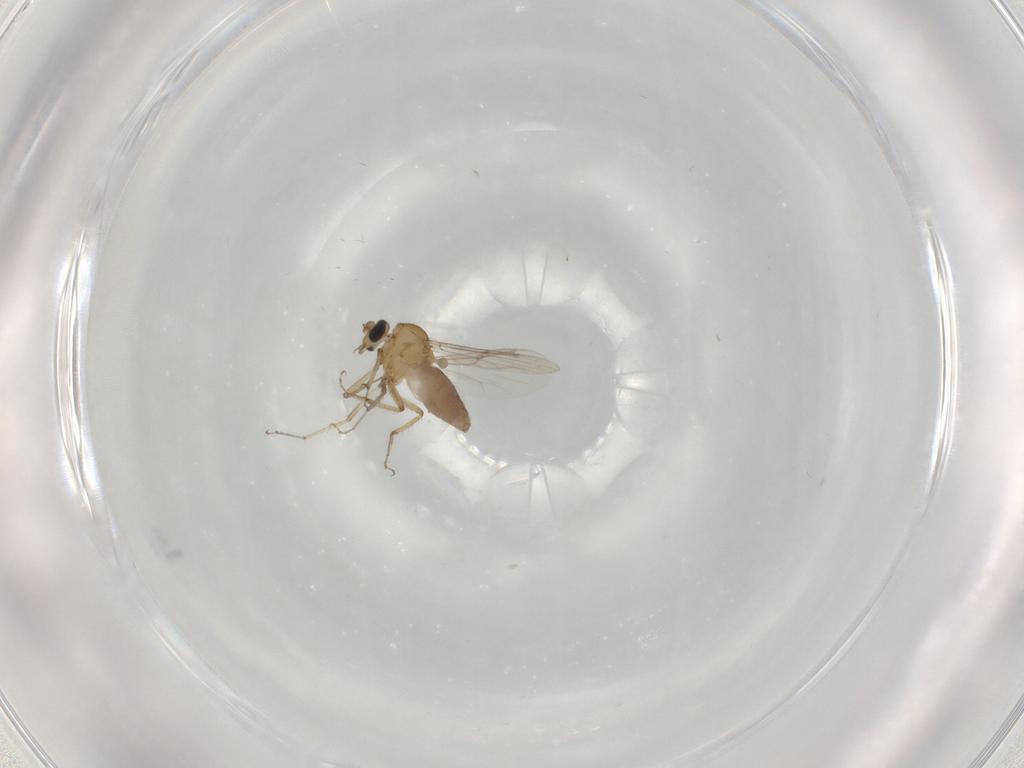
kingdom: Animalia
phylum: Arthropoda
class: Insecta
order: Diptera
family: Ceratopogonidae
